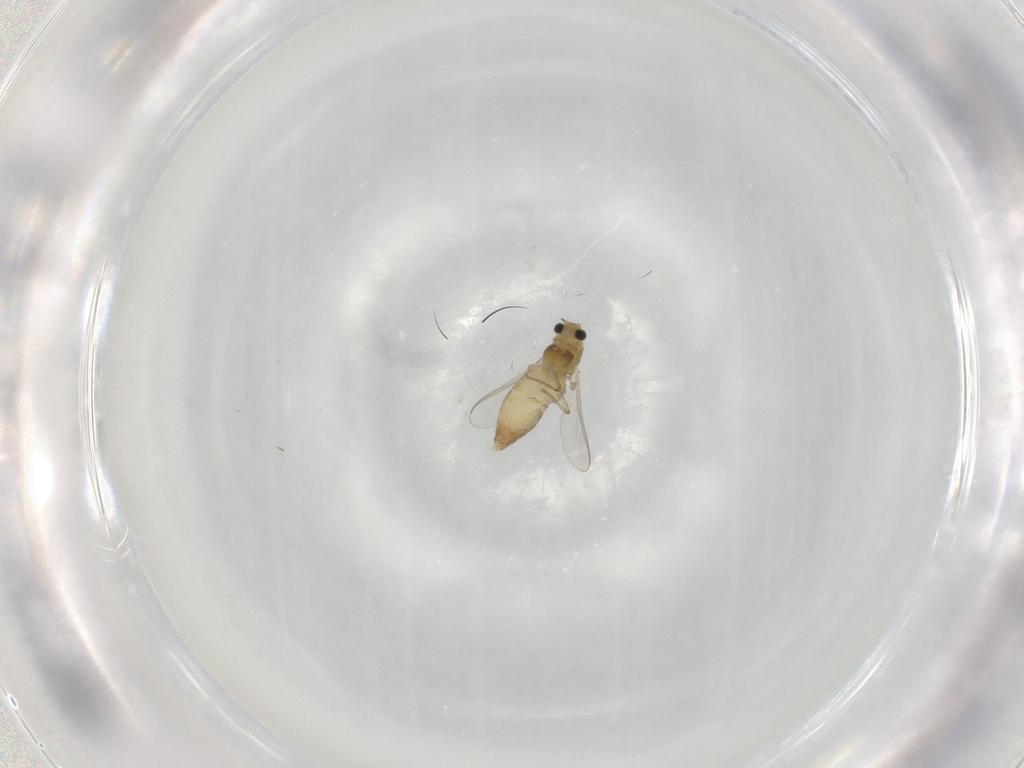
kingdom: Animalia
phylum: Arthropoda
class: Insecta
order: Diptera
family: Chironomidae
